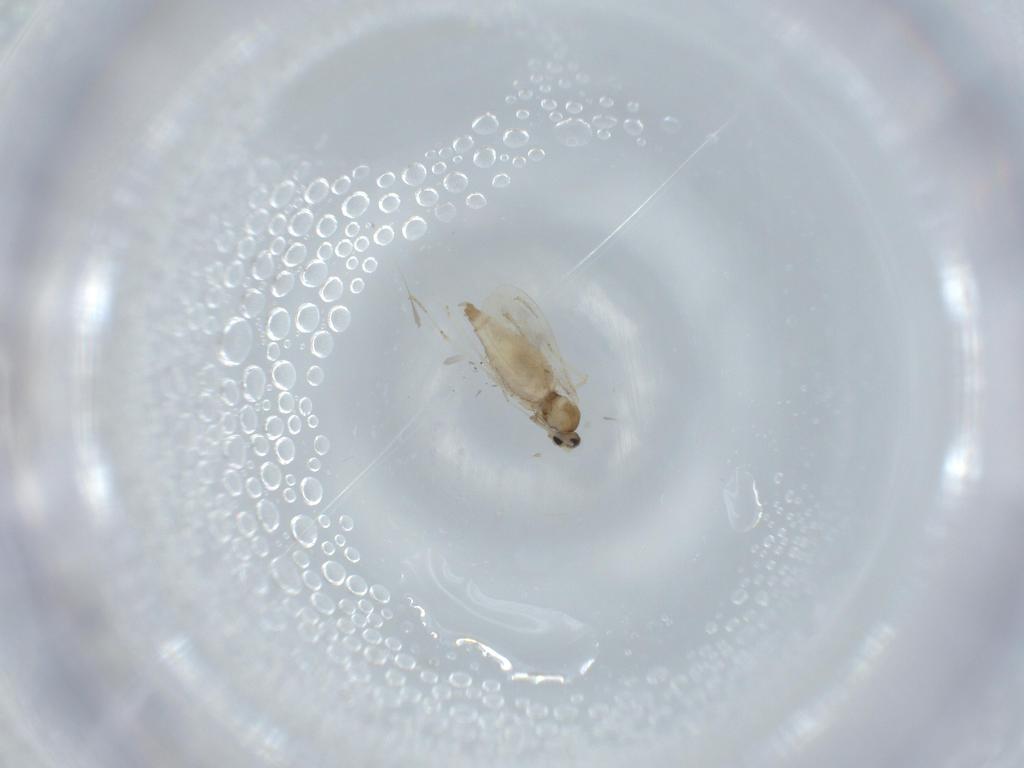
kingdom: Animalia
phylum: Arthropoda
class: Insecta
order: Diptera
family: Cecidomyiidae
